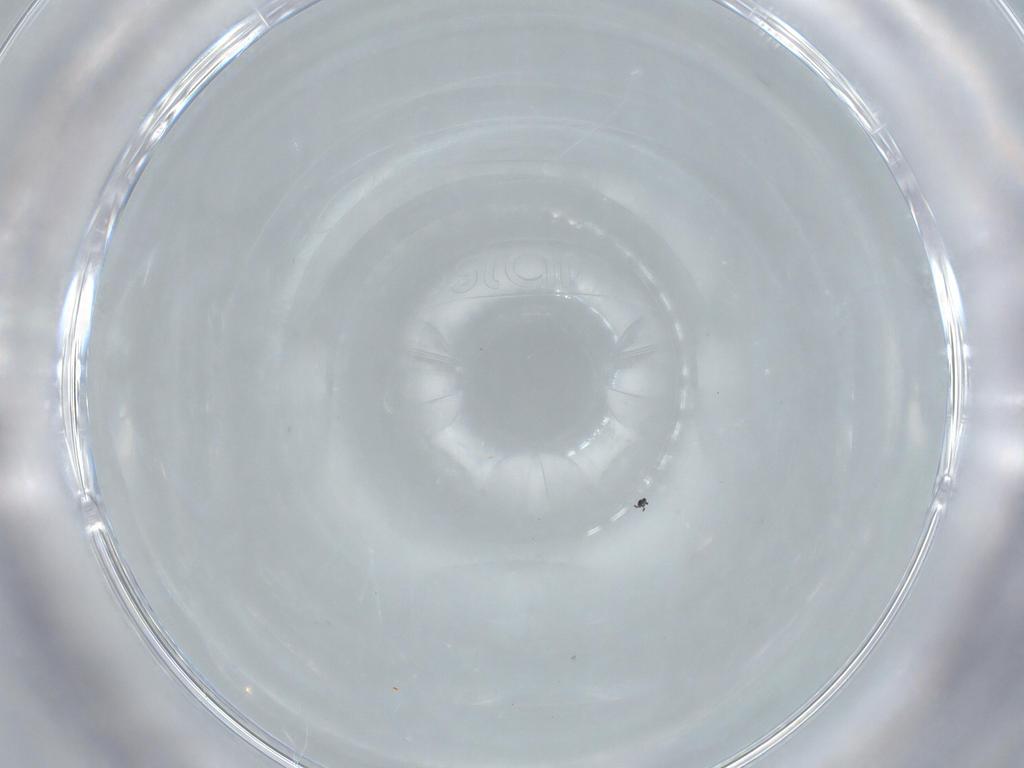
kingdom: Animalia
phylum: Arthropoda
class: Insecta
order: Diptera
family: Cecidomyiidae
